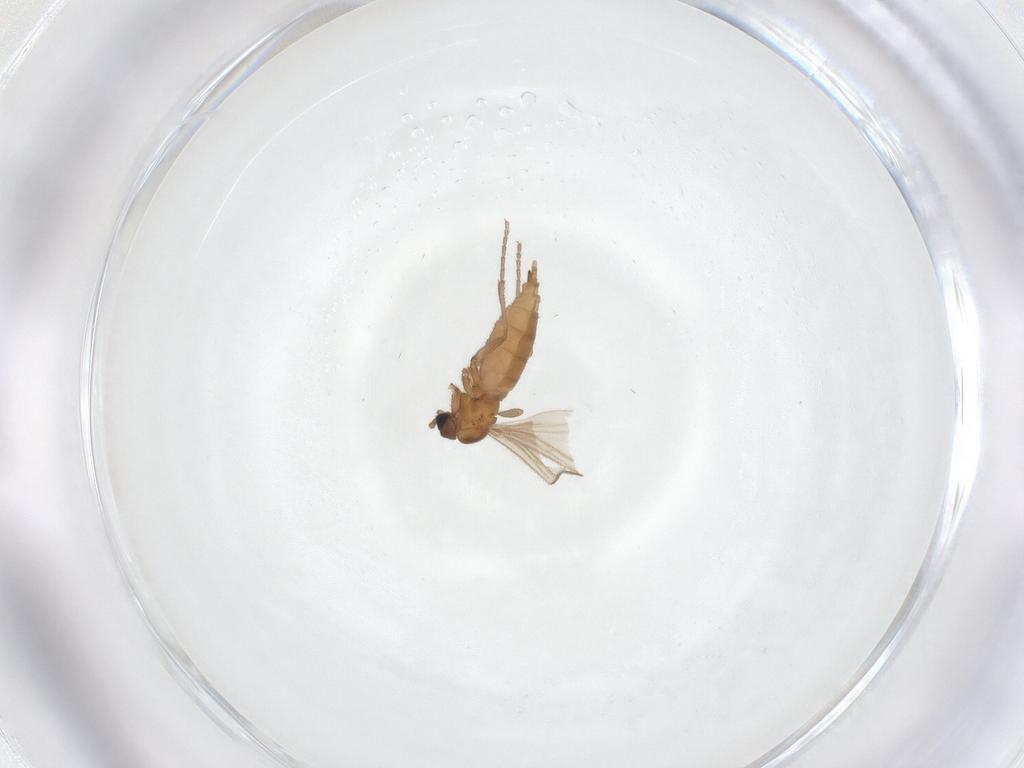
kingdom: Animalia
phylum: Arthropoda
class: Insecta
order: Diptera
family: Sciaridae
